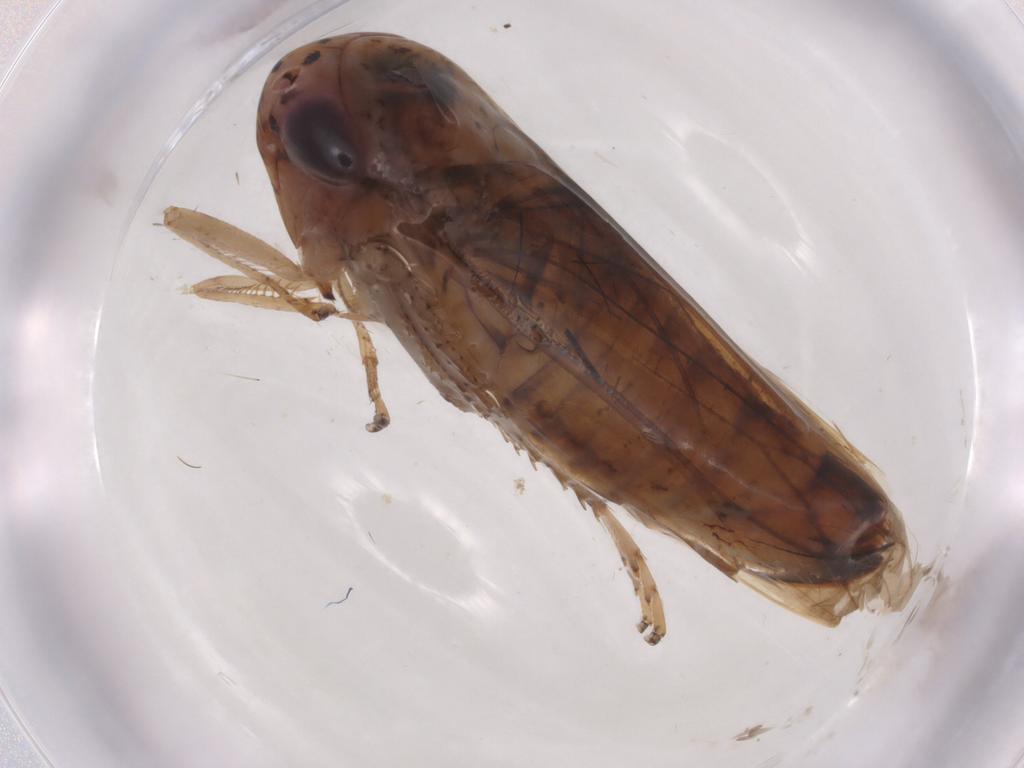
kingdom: Animalia
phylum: Arthropoda
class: Insecta
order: Hemiptera
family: Cicadellidae
